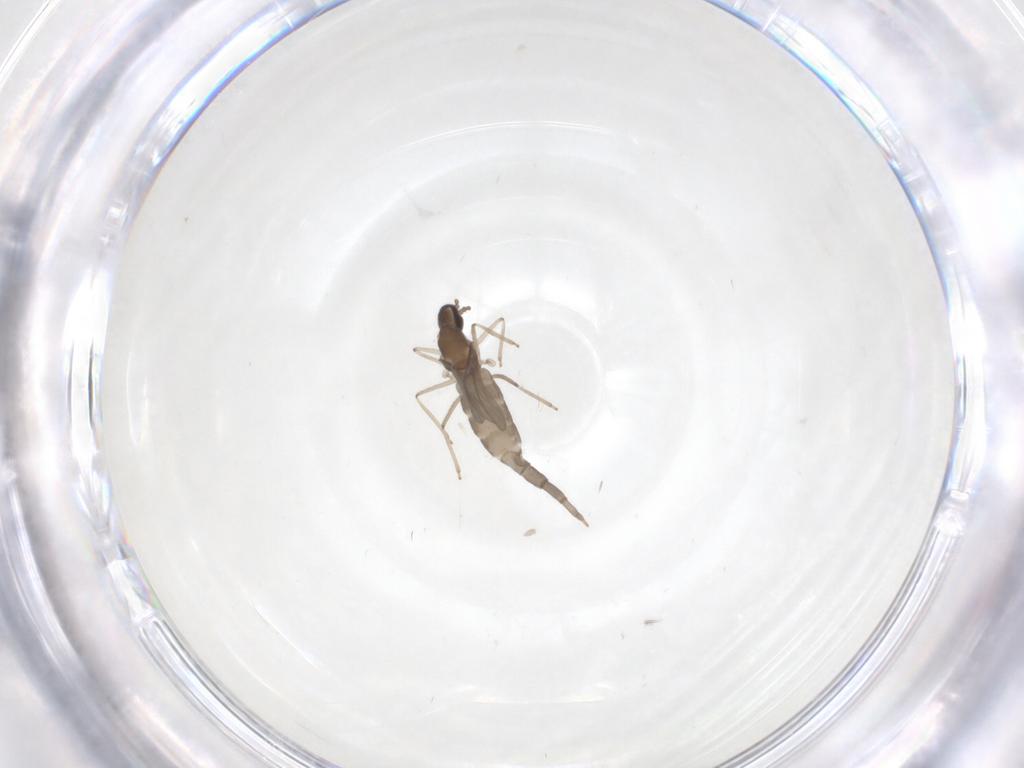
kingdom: Animalia
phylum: Arthropoda
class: Insecta
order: Diptera
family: Cecidomyiidae
